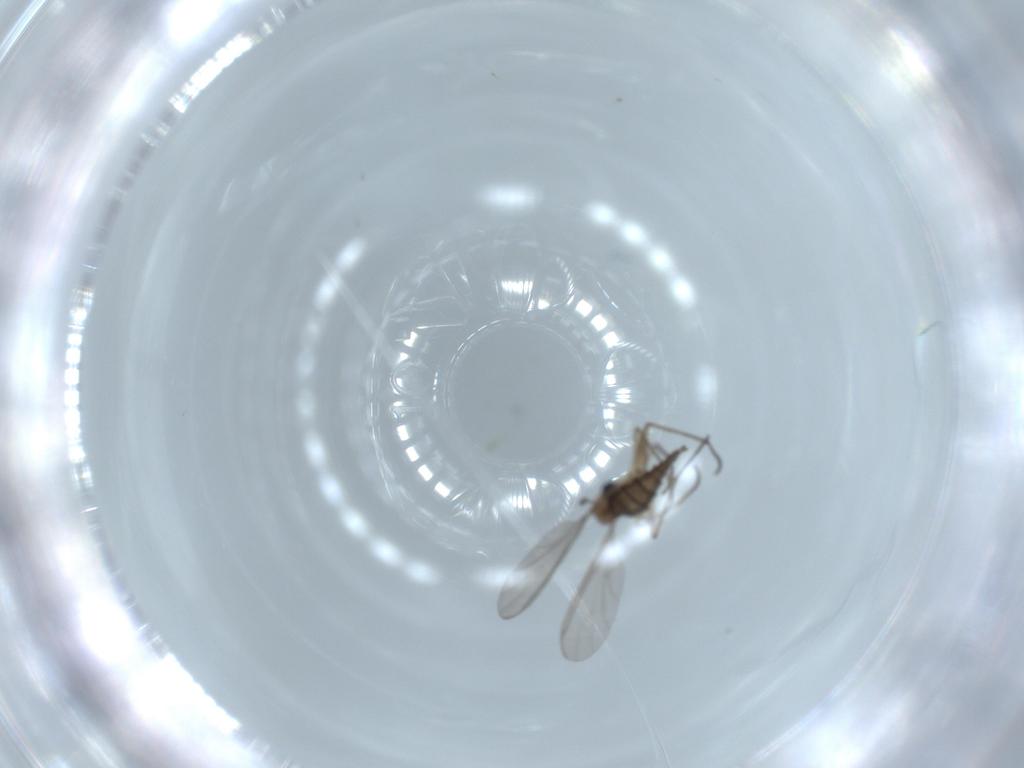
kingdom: Animalia
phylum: Arthropoda
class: Insecta
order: Diptera
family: Sciaridae
